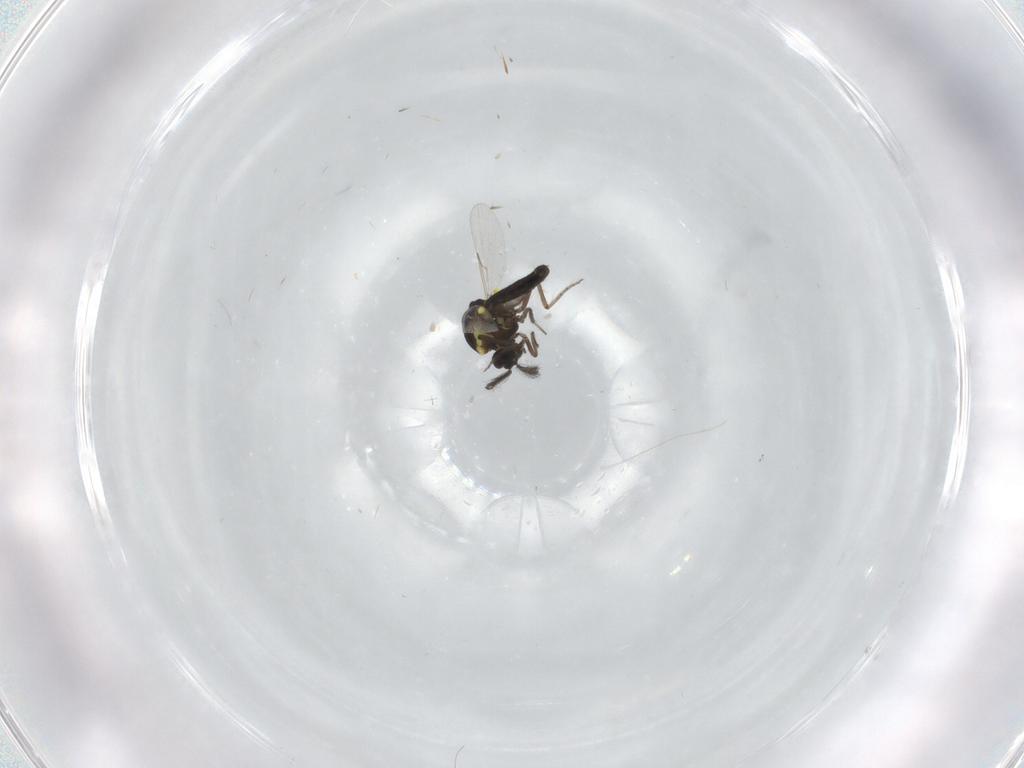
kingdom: Animalia
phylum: Arthropoda
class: Insecta
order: Diptera
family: Ceratopogonidae
